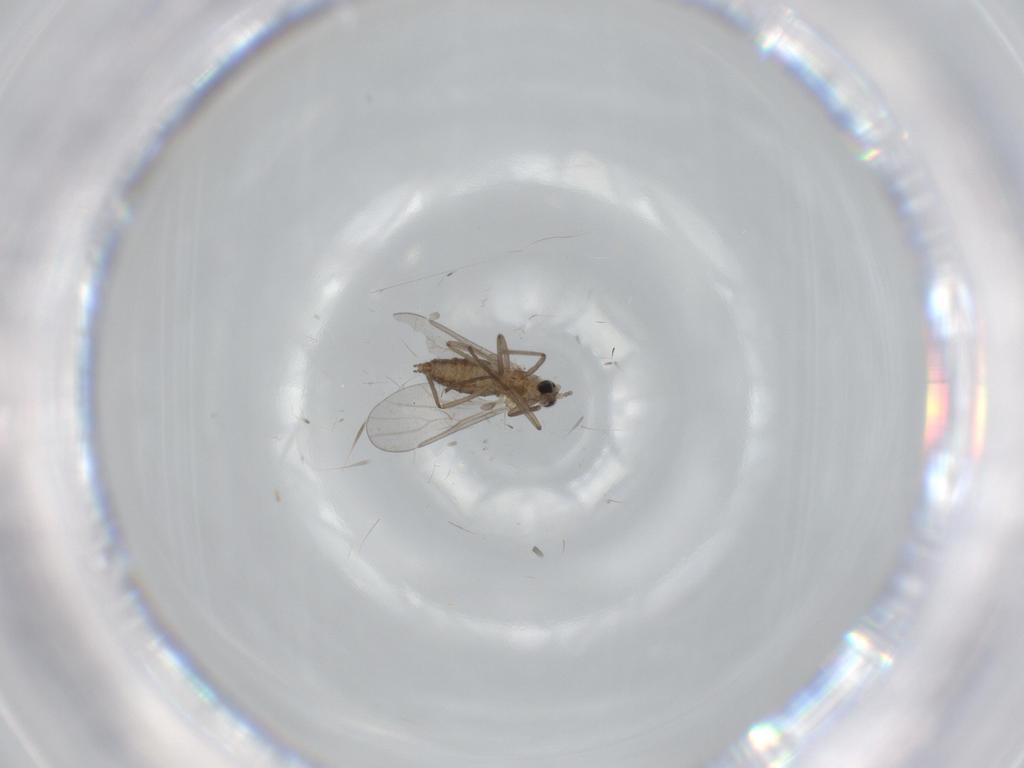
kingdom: Animalia
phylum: Arthropoda
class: Insecta
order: Diptera
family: Cecidomyiidae
